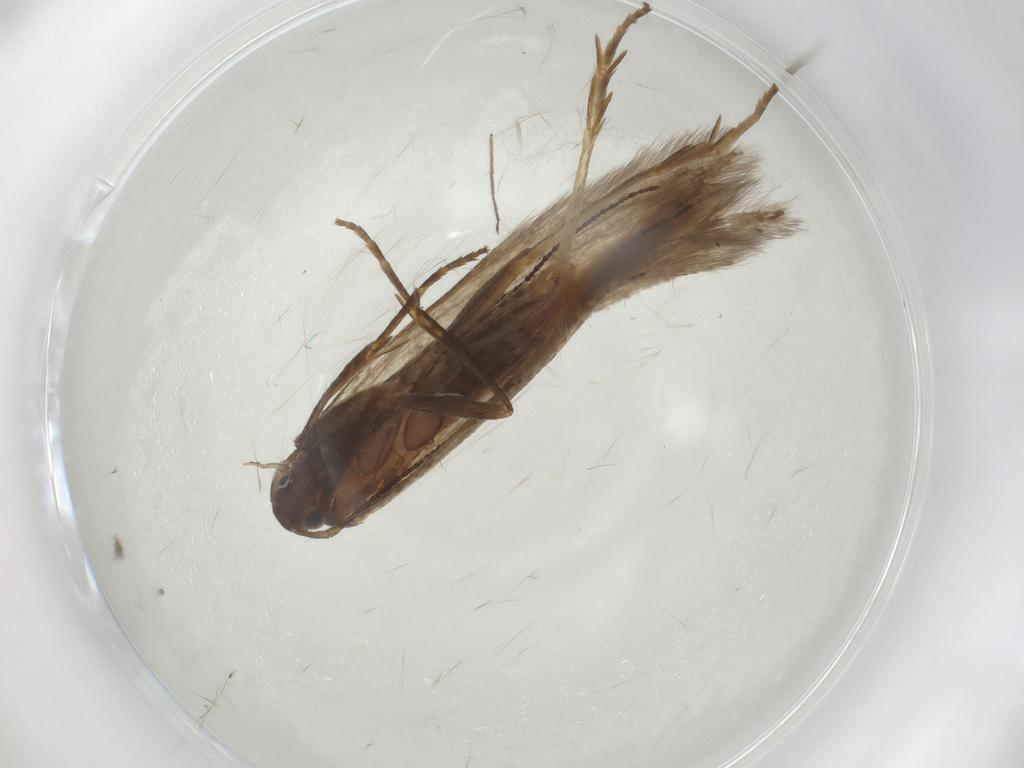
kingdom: Animalia
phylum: Arthropoda
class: Insecta
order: Lepidoptera
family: Erebidae
